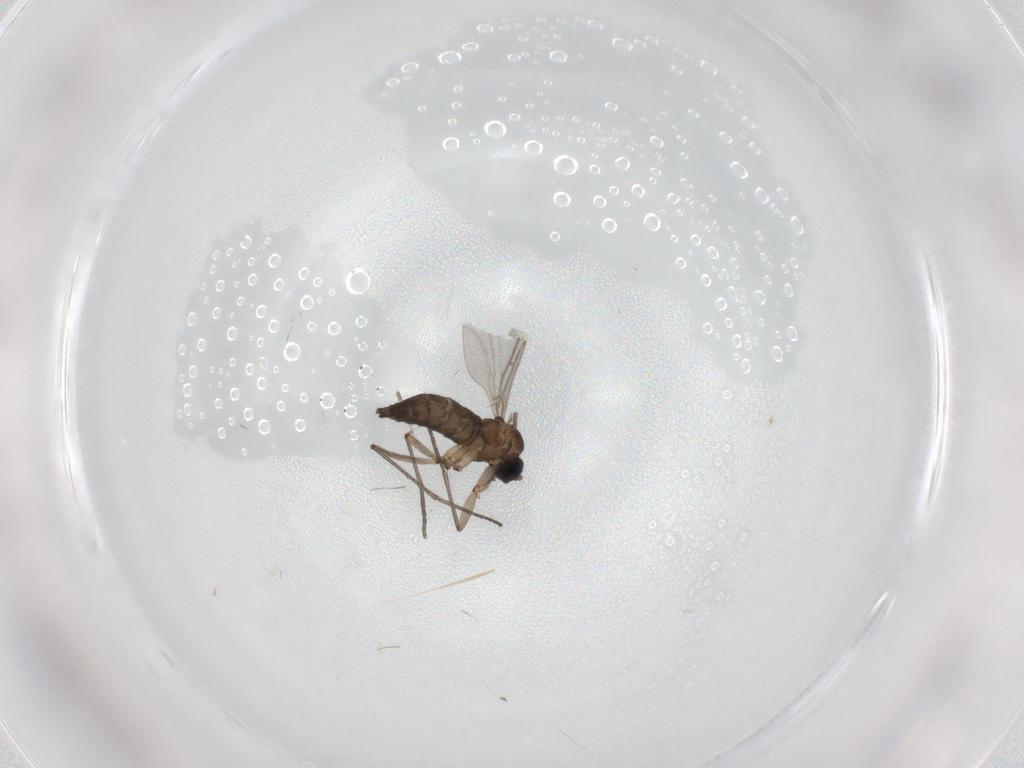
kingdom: Animalia
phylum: Arthropoda
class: Insecta
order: Diptera
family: Sciaridae
